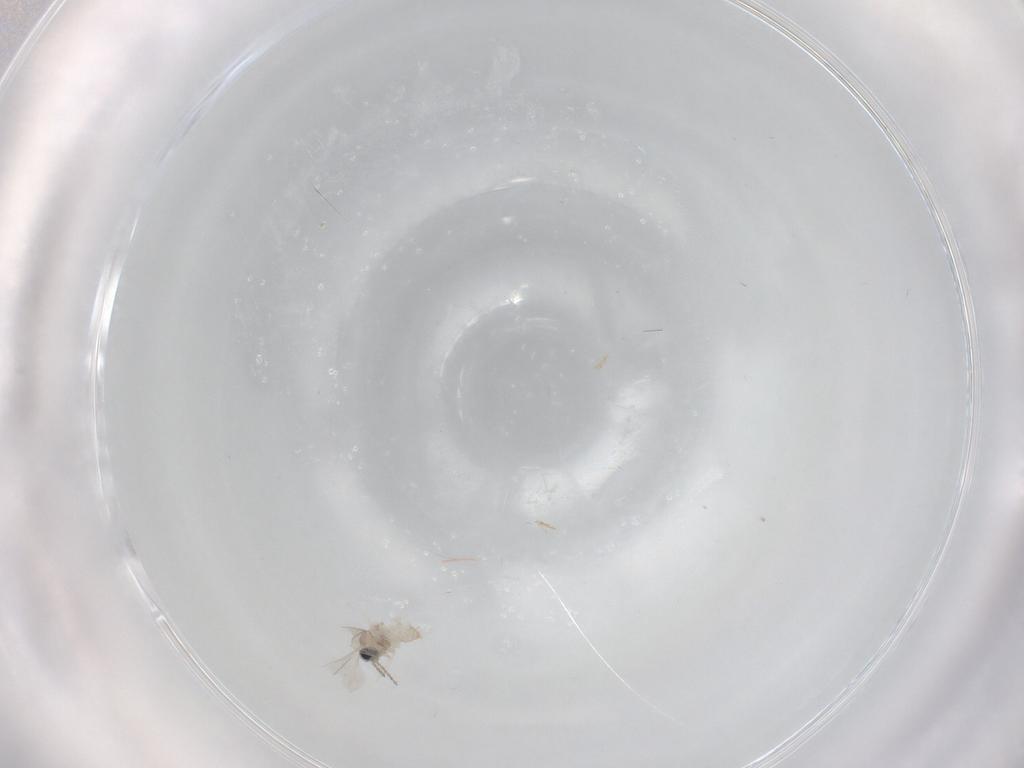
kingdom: Animalia
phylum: Arthropoda
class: Insecta
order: Diptera
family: Cecidomyiidae
